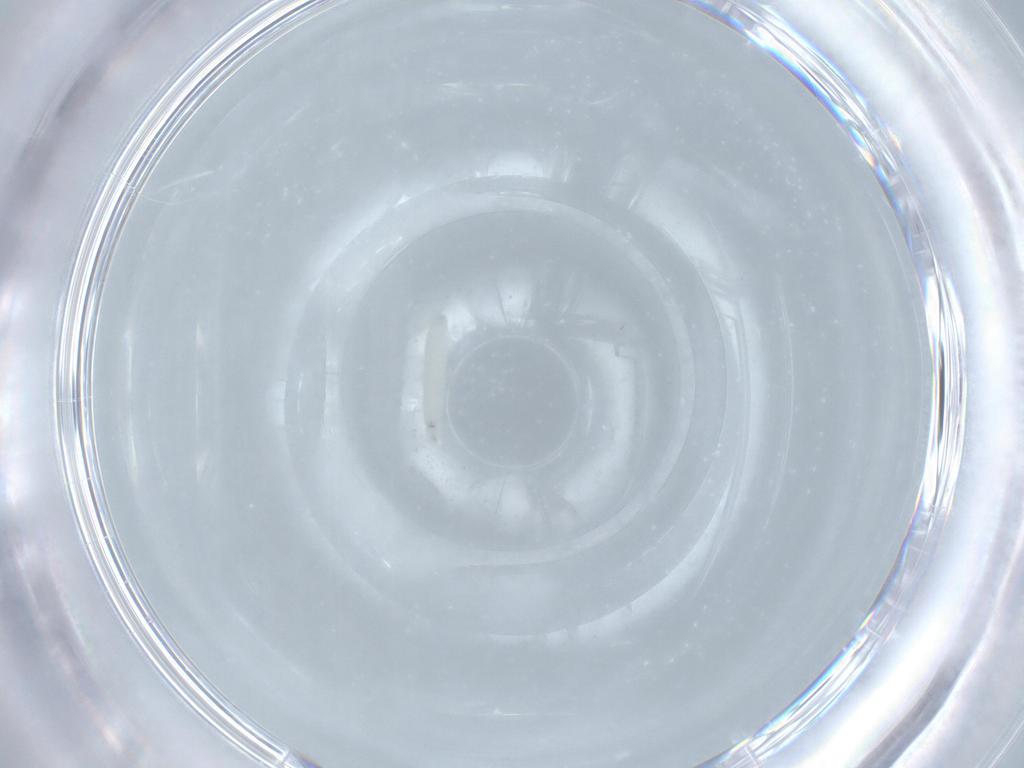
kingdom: Animalia
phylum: Arthropoda
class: Insecta
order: Diptera
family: Sarcophagidae
